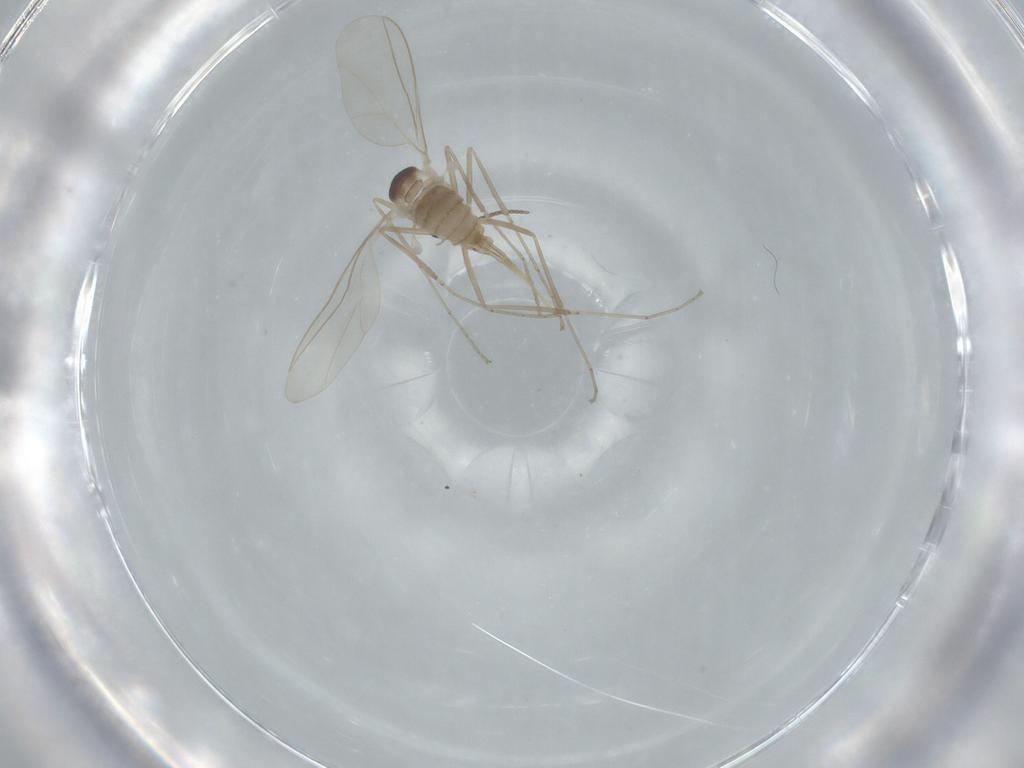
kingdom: Animalia
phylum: Arthropoda
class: Insecta
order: Diptera
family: Cecidomyiidae
